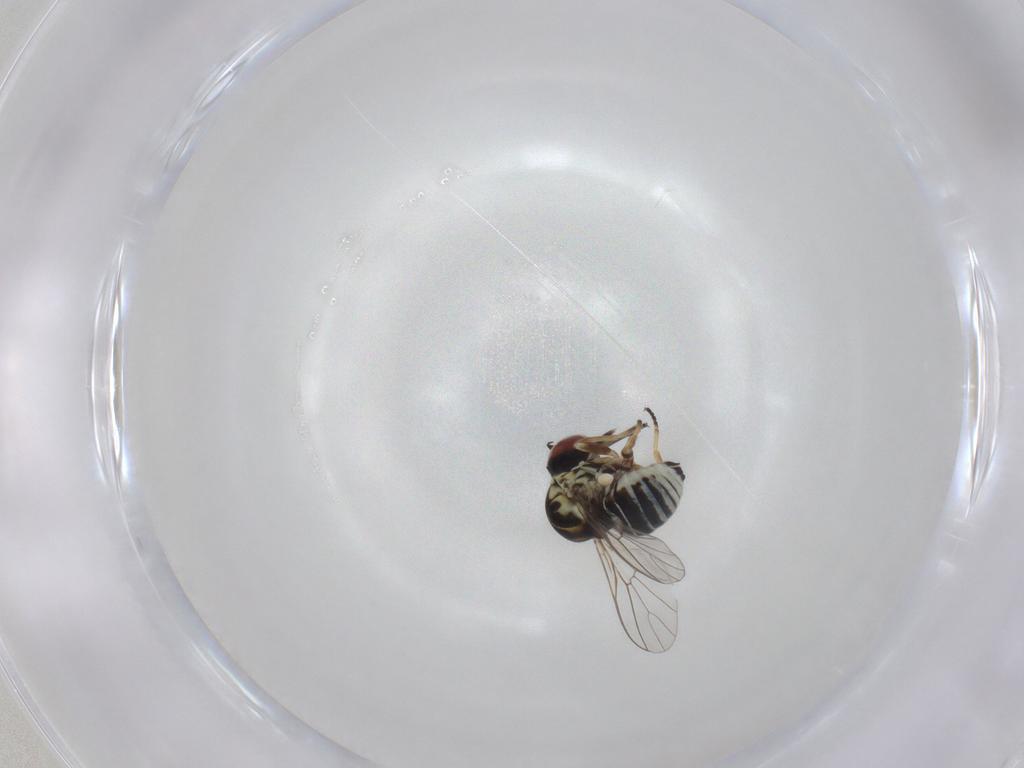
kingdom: Animalia
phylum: Arthropoda
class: Insecta
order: Diptera
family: Bombyliidae
